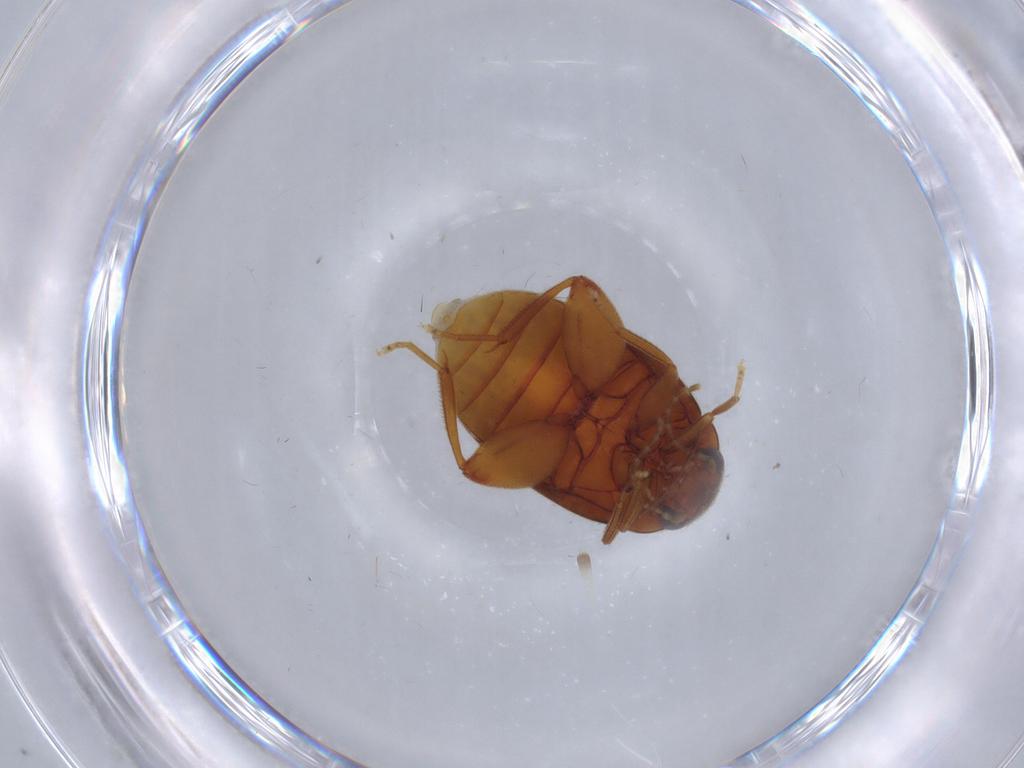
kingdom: Animalia
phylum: Arthropoda
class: Insecta
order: Coleoptera
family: Scirtidae
